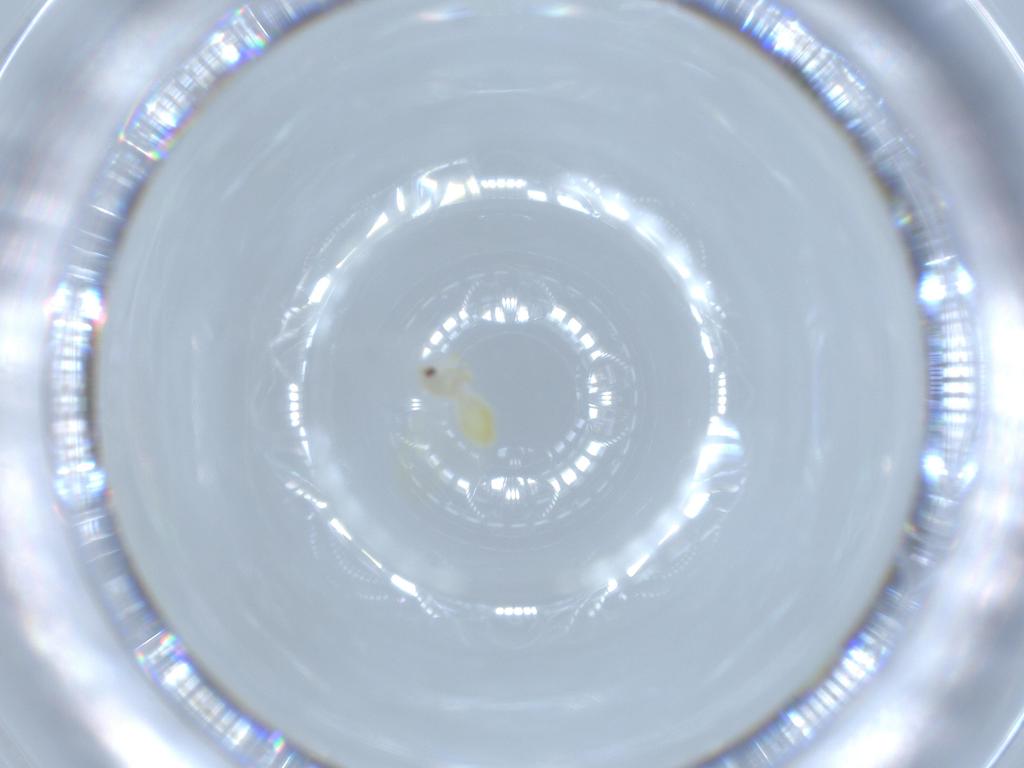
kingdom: Animalia
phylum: Arthropoda
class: Insecta
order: Hemiptera
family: Aleyrodidae
